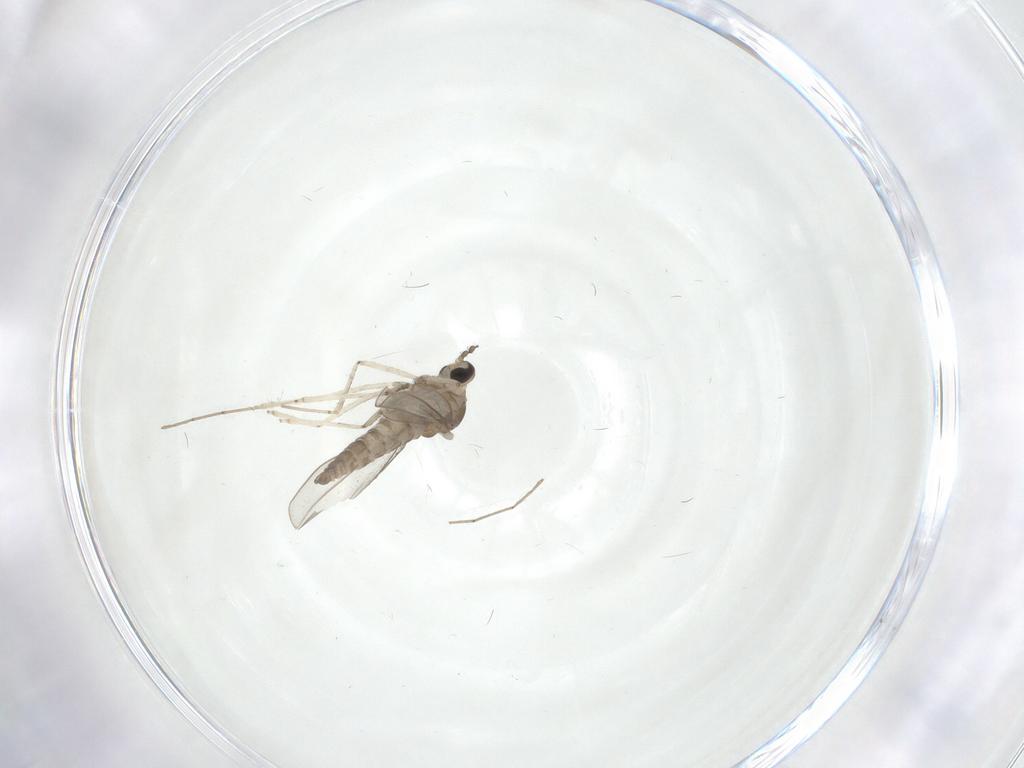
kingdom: Animalia
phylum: Arthropoda
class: Insecta
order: Diptera
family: Cecidomyiidae
